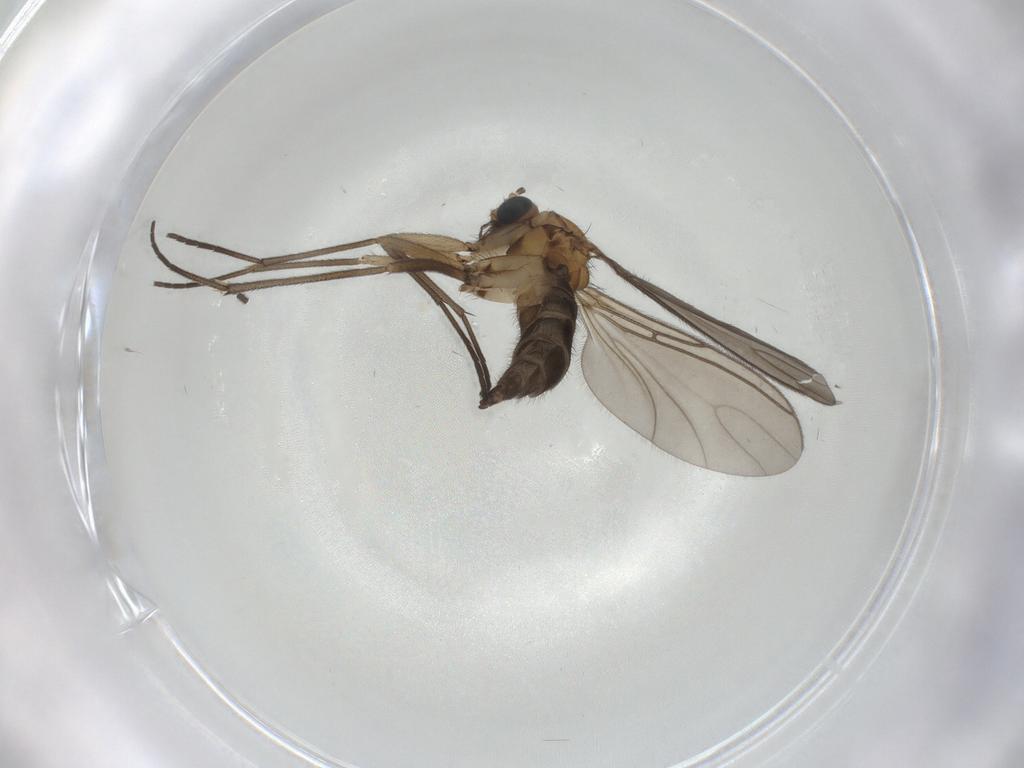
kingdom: Animalia
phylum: Arthropoda
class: Insecta
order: Diptera
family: Sciaridae
